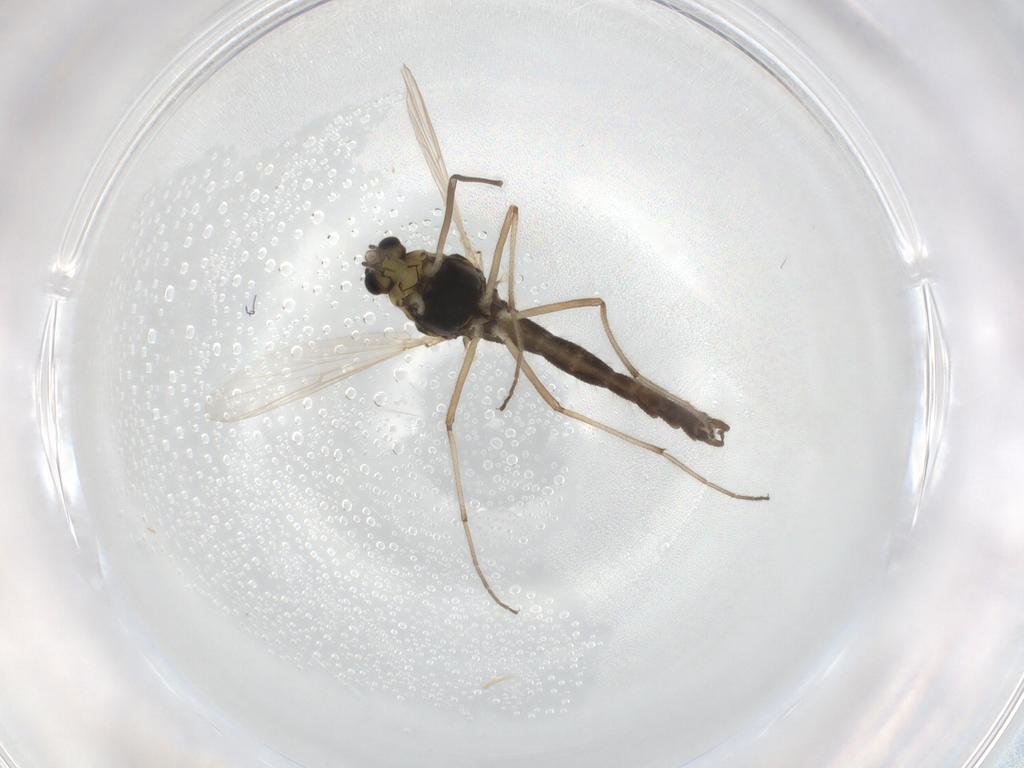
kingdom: Animalia
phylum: Arthropoda
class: Insecta
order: Diptera
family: Chironomidae
